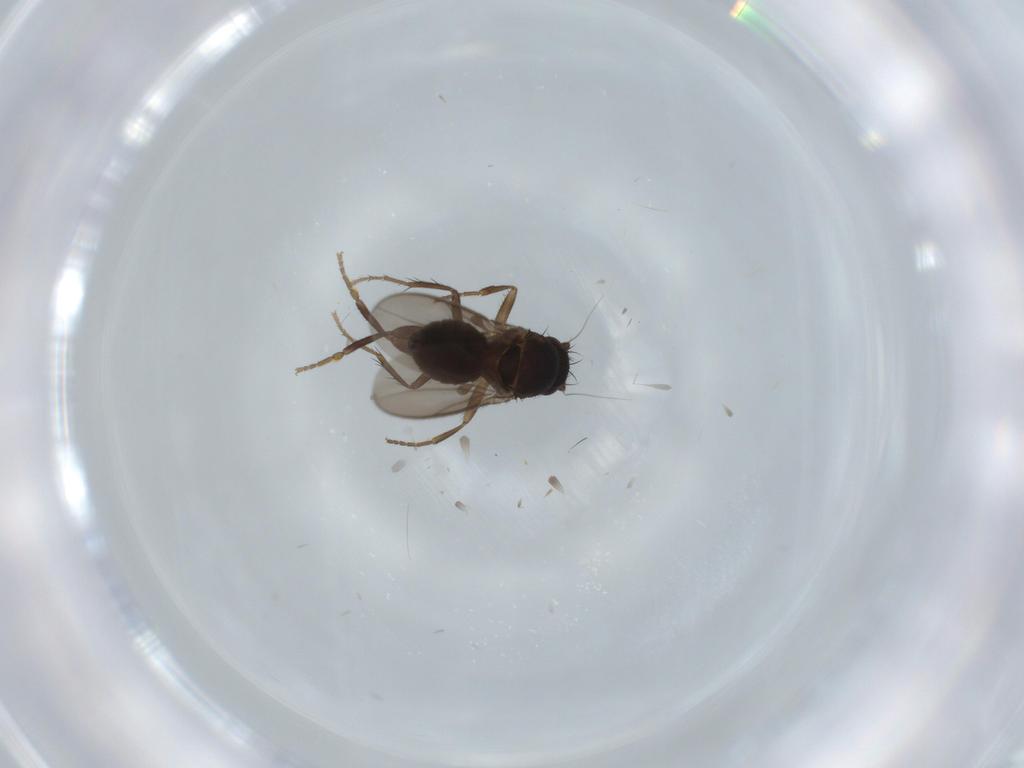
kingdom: Animalia
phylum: Arthropoda
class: Insecta
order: Diptera
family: Sphaeroceridae
